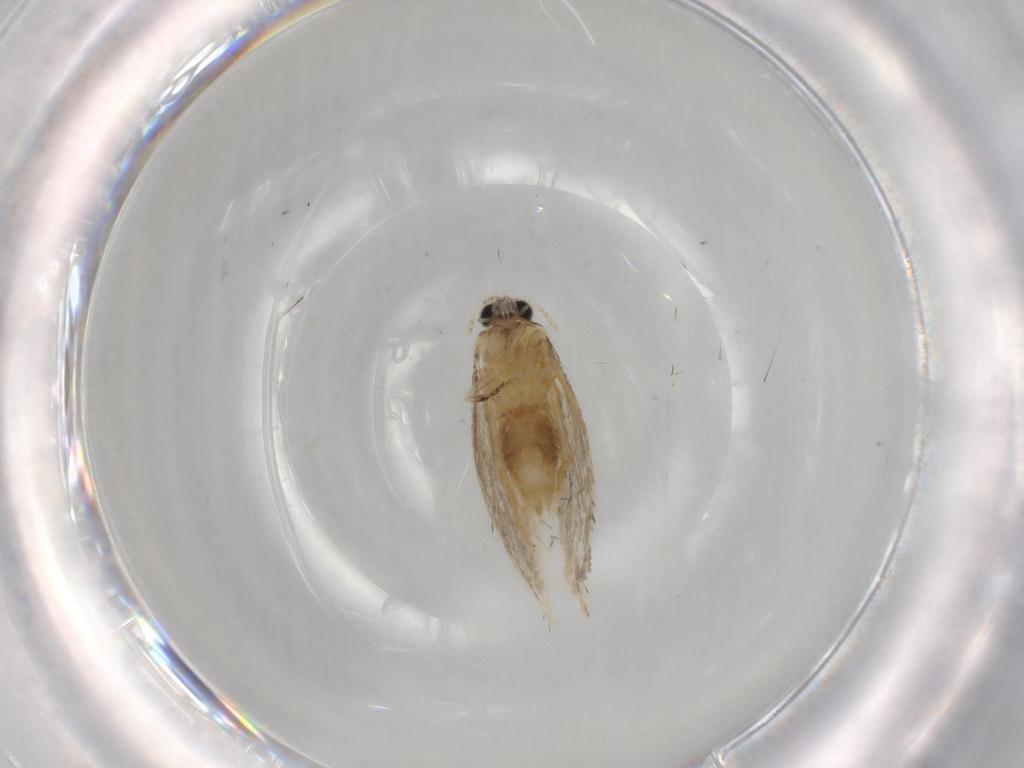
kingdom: Animalia
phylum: Arthropoda
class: Insecta
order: Lepidoptera
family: Nepticulidae
